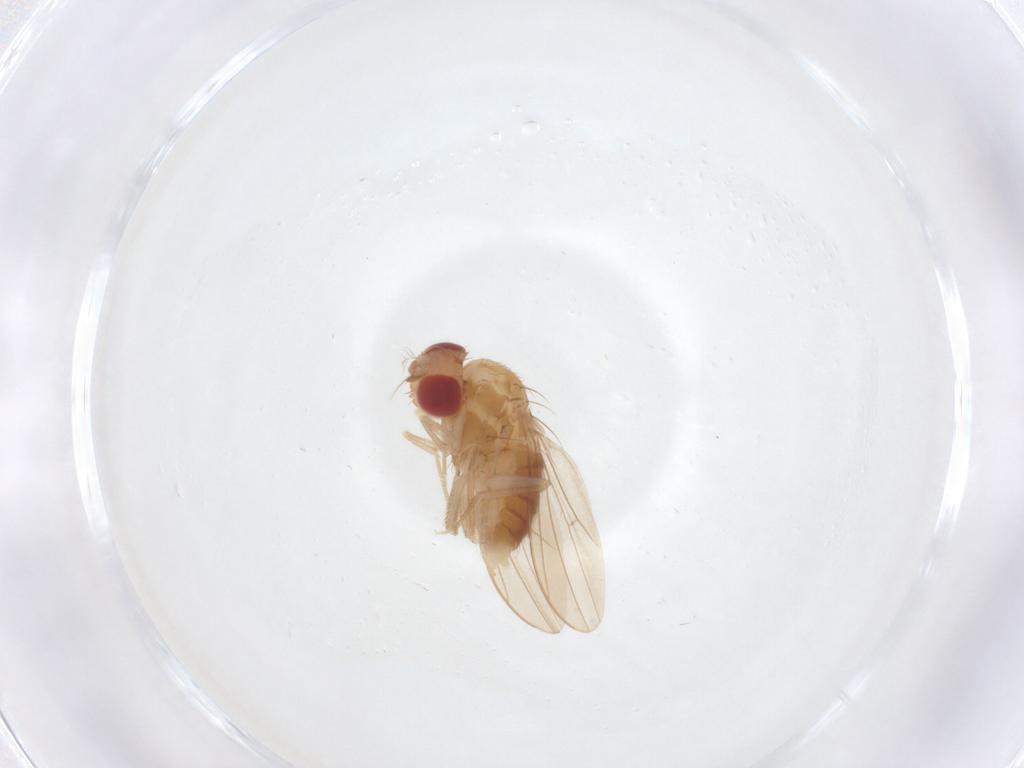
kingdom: Animalia
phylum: Arthropoda
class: Insecta
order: Diptera
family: Drosophilidae
